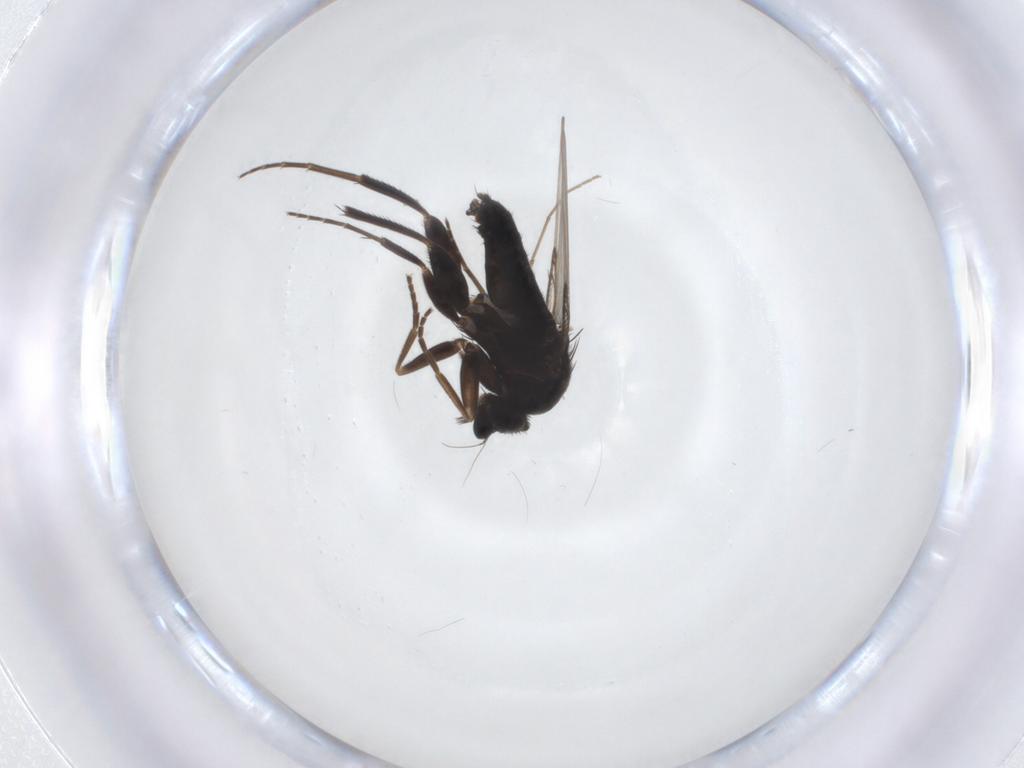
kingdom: Animalia
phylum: Arthropoda
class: Insecta
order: Diptera
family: Phoridae
